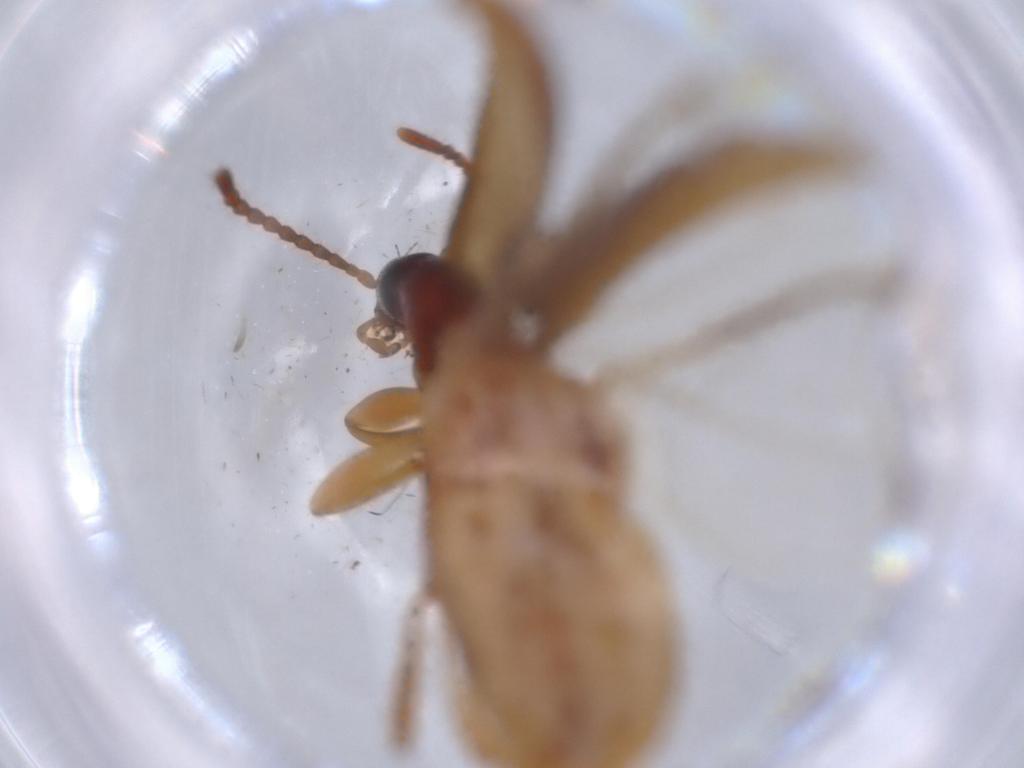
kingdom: Animalia
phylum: Arthropoda
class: Insecta
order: Coleoptera
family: Tenebrionidae
